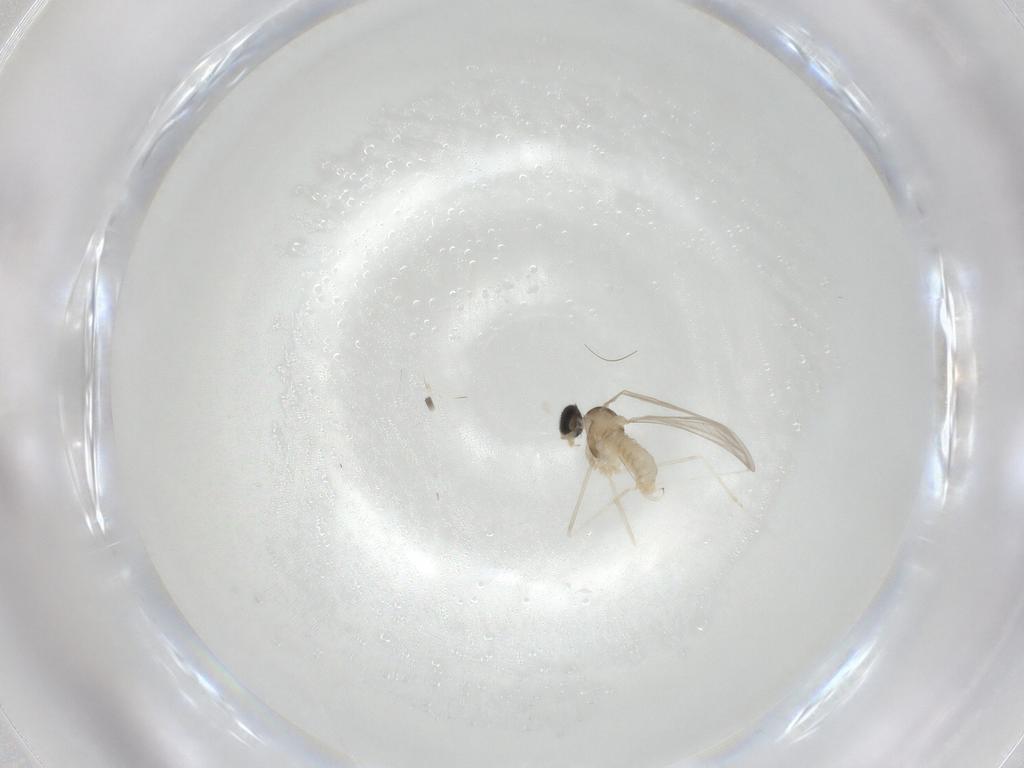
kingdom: Animalia
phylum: Arthropoda
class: Insecta
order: Diptera
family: Cecidomyiidae
